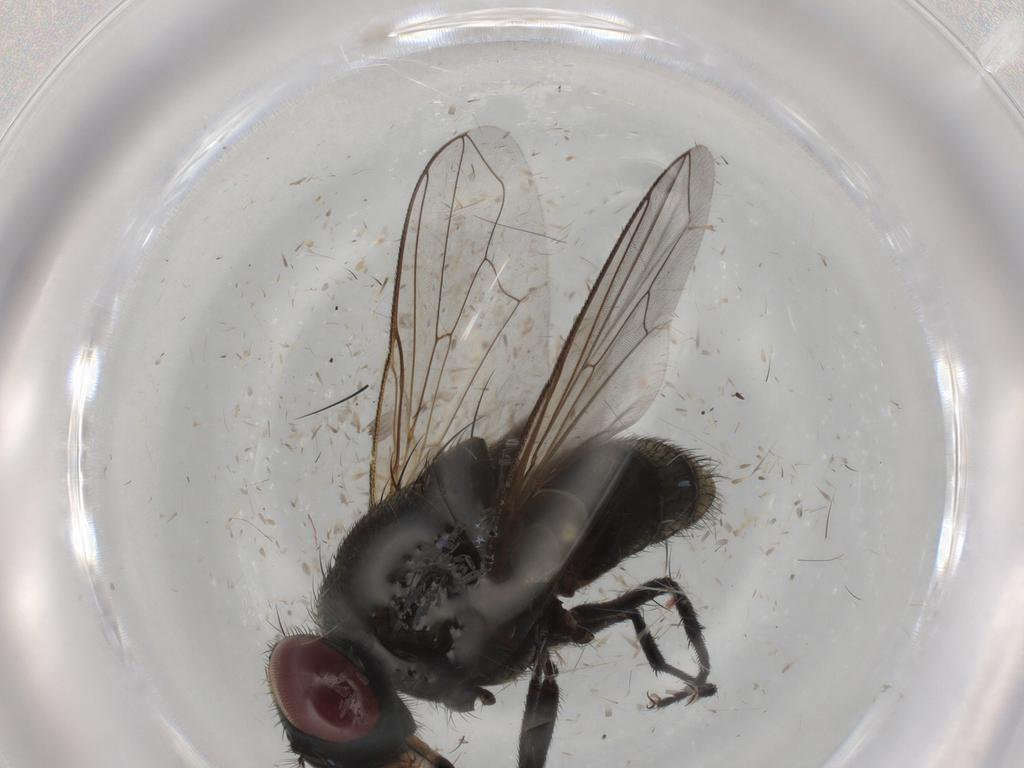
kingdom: Animalia
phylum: Arthropoda
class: Insecta
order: Diptera
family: Muscidae
